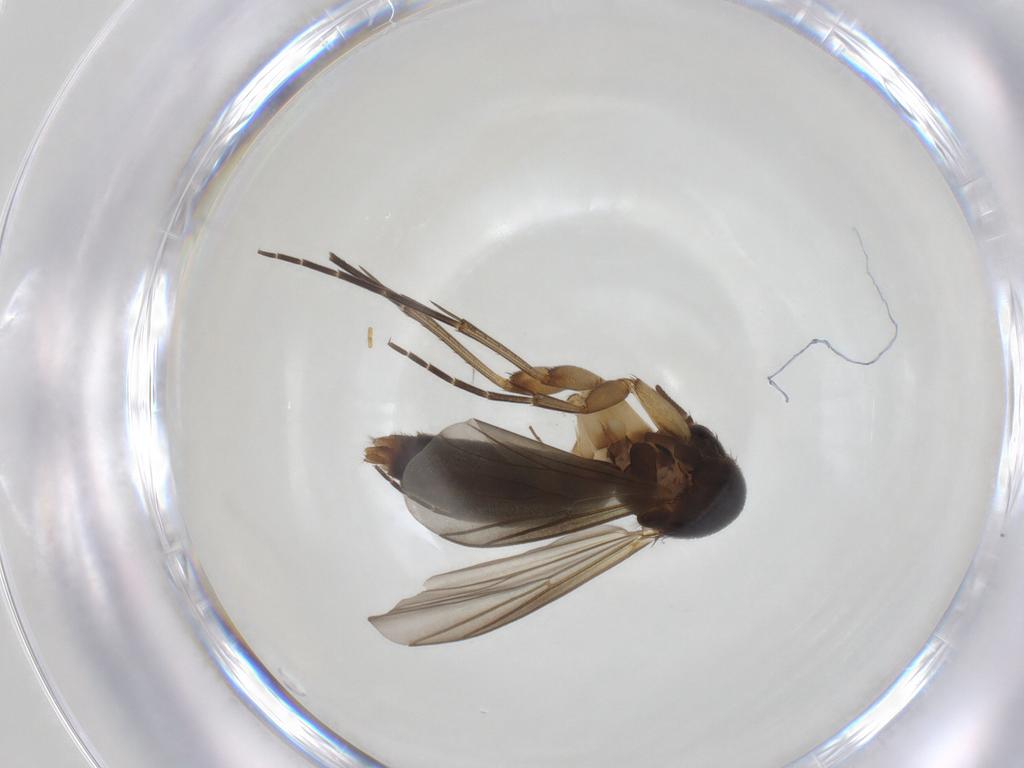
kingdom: Animalia
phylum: Arthropoda
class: Insecta
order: Diptera
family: Mycetophilidae
